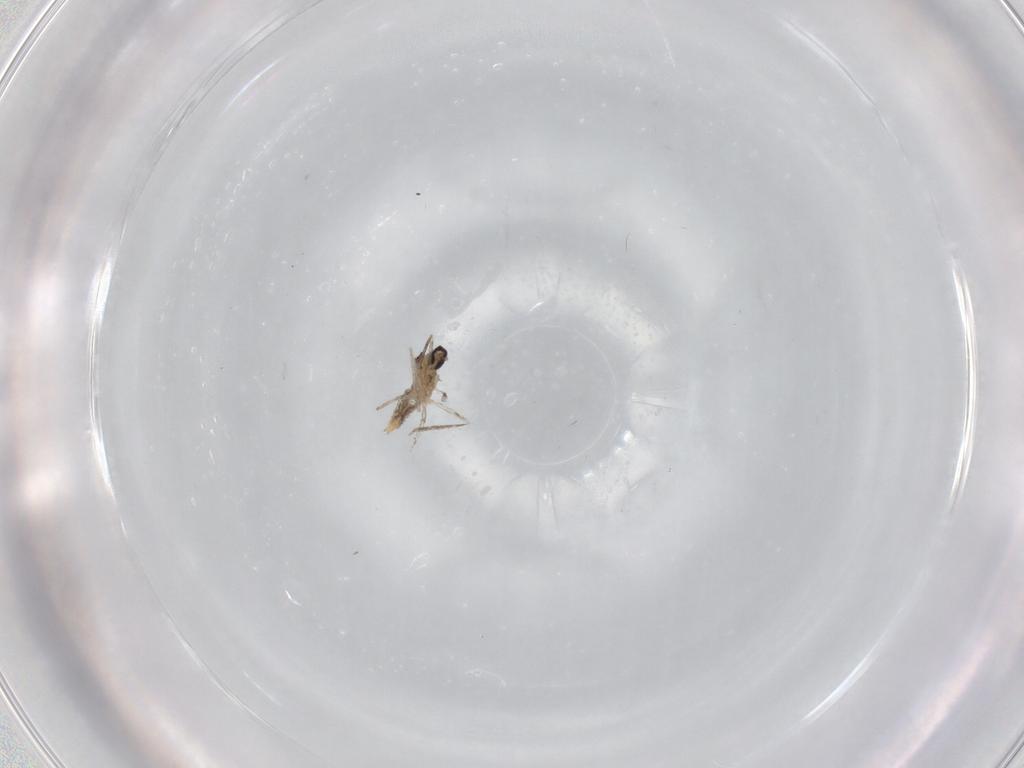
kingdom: Animalia
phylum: Arthropoda
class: Insecta
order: Diptera
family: Cecidomyiidae
